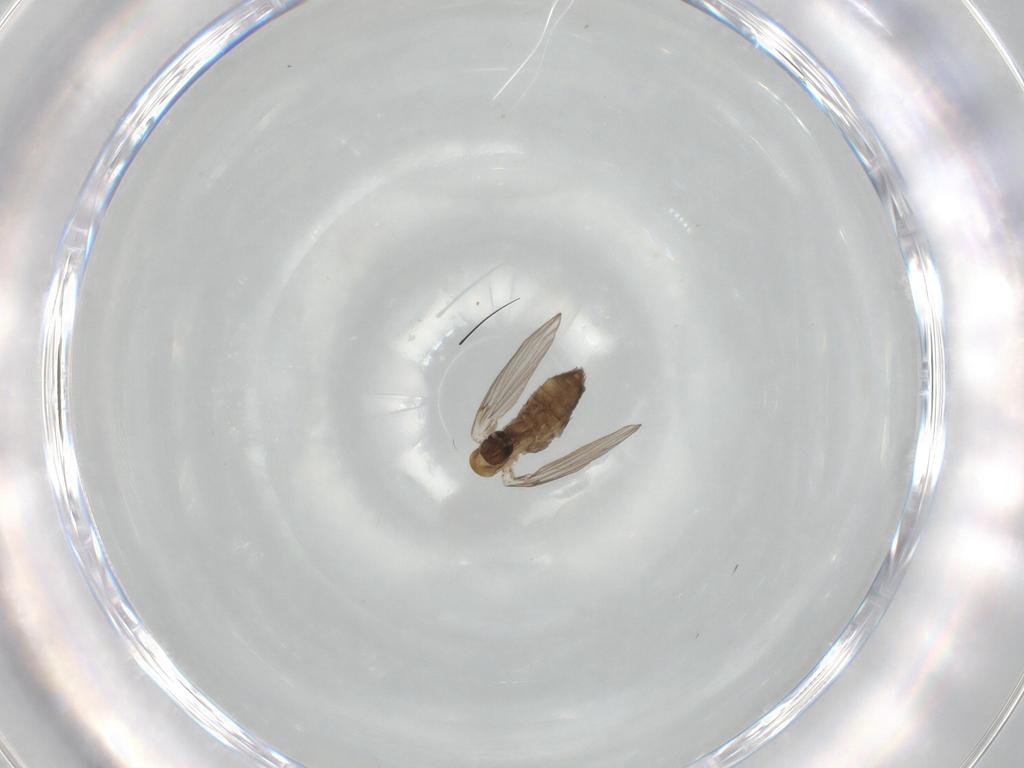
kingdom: Animalia
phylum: Arthropoda
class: Insecta
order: Diptera
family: Psychodidae
